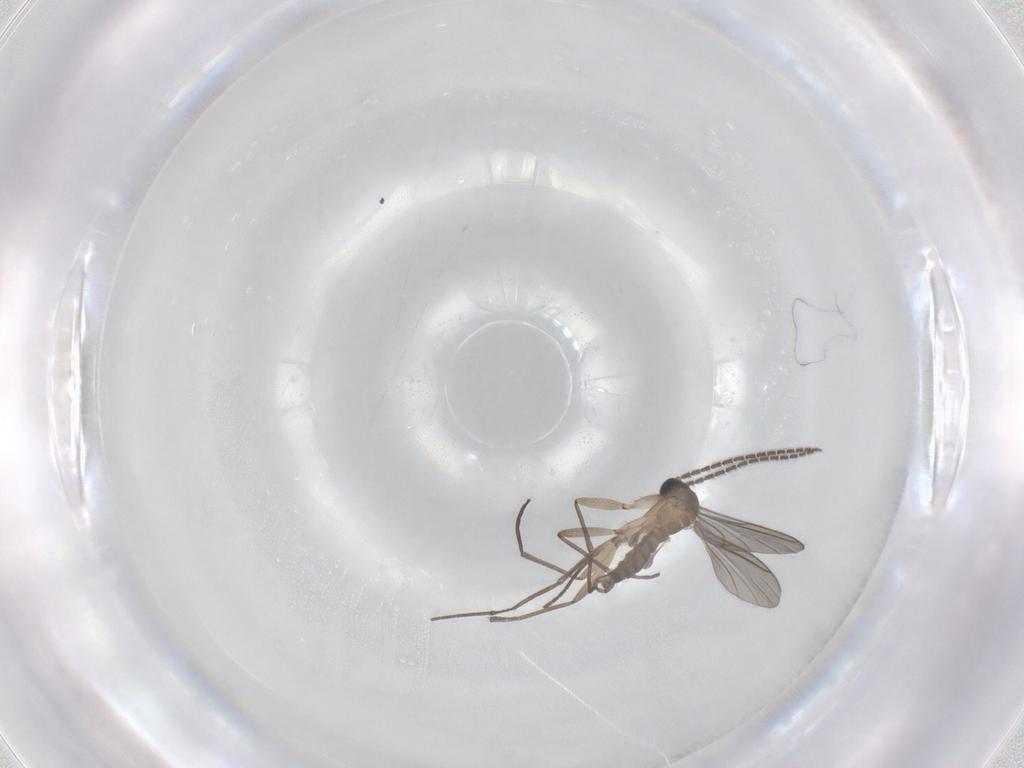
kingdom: Animalia
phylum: Arthropoda
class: Insecta
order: Diptera
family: Sciaridae
